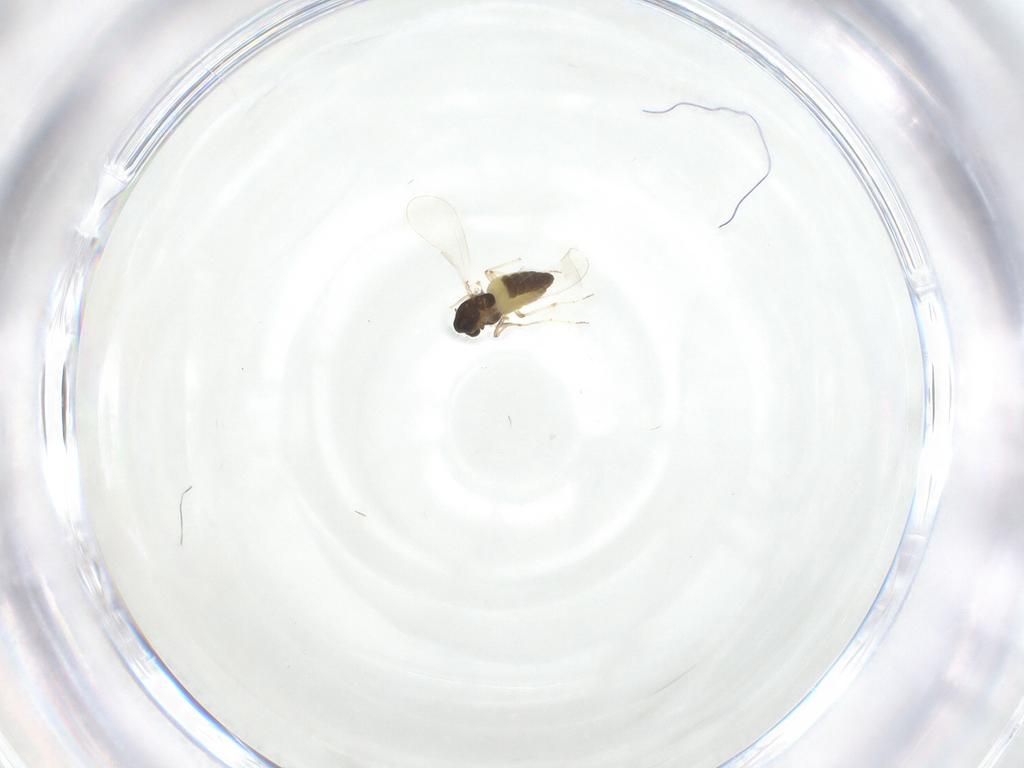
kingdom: Animalia
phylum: Arthropoda
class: Insecta
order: Diptera
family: Chironomidae
